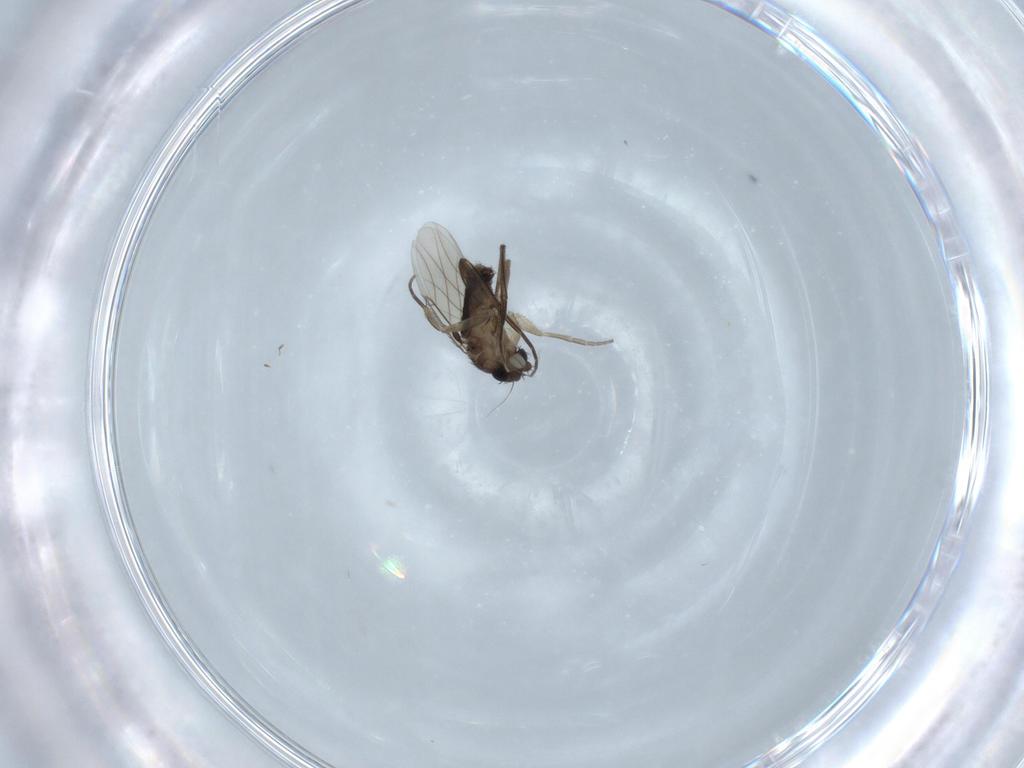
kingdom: Animalia
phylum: Arthropoda
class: Insecta
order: Diptera
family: Phoridae
